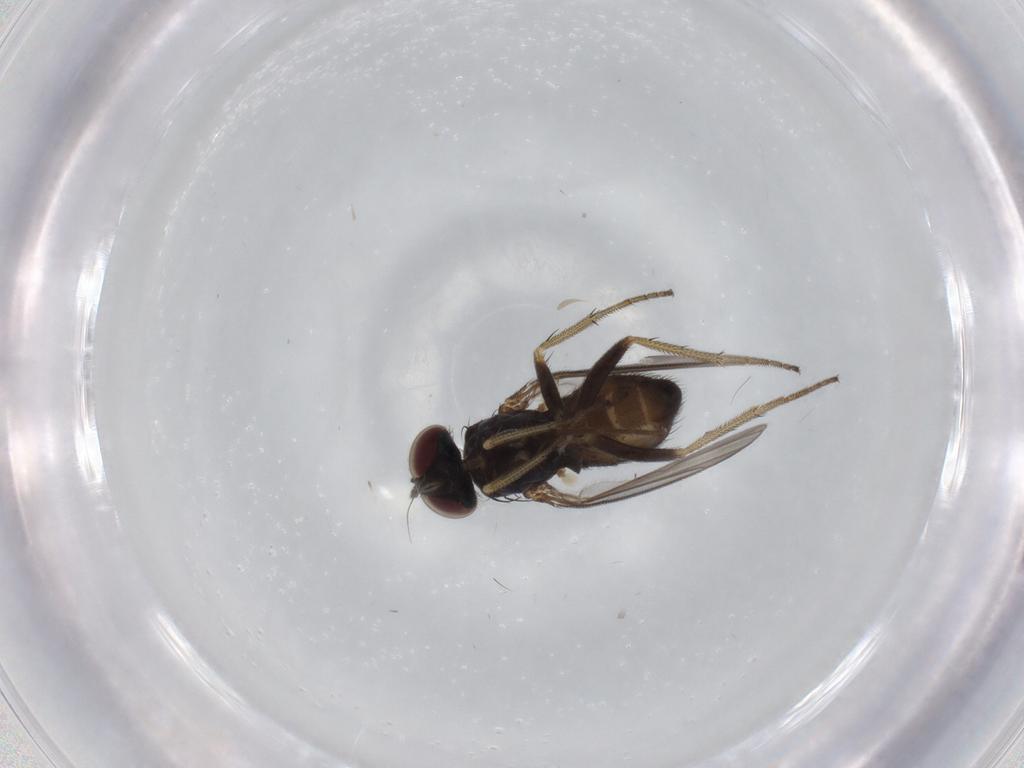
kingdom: Animalia
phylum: Arthropoda
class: Insecta
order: Diptera
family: Dolichopodidae
